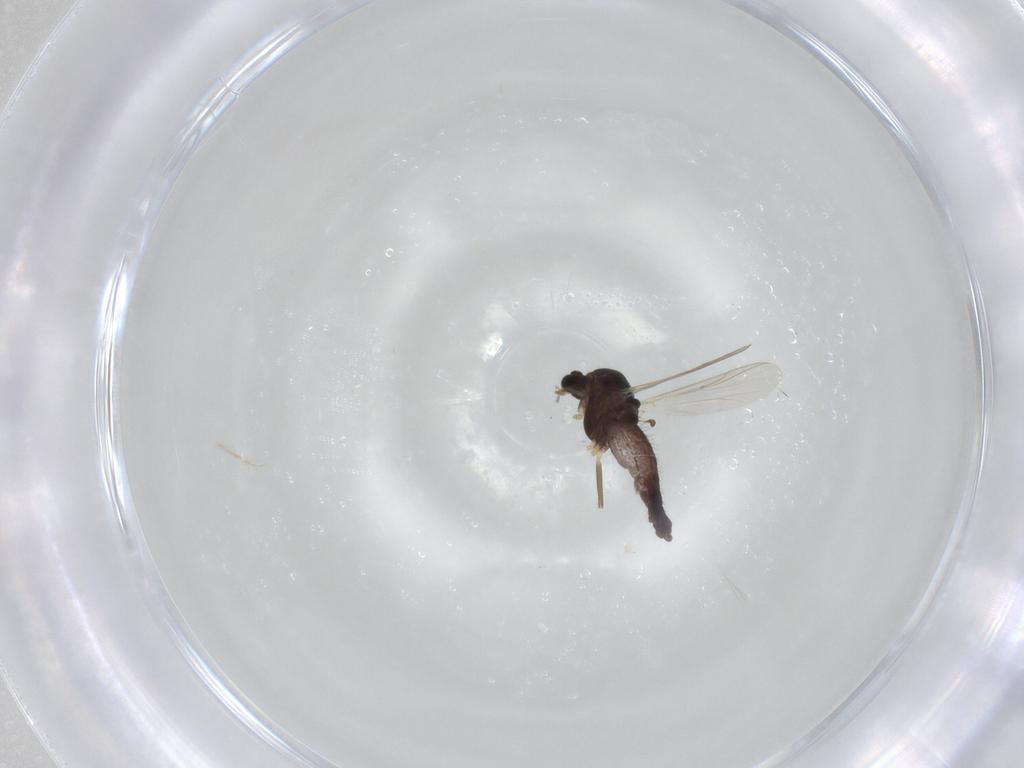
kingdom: Animalia
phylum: Arthropoda
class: Insecta
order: Diptera
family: Chironomidae
